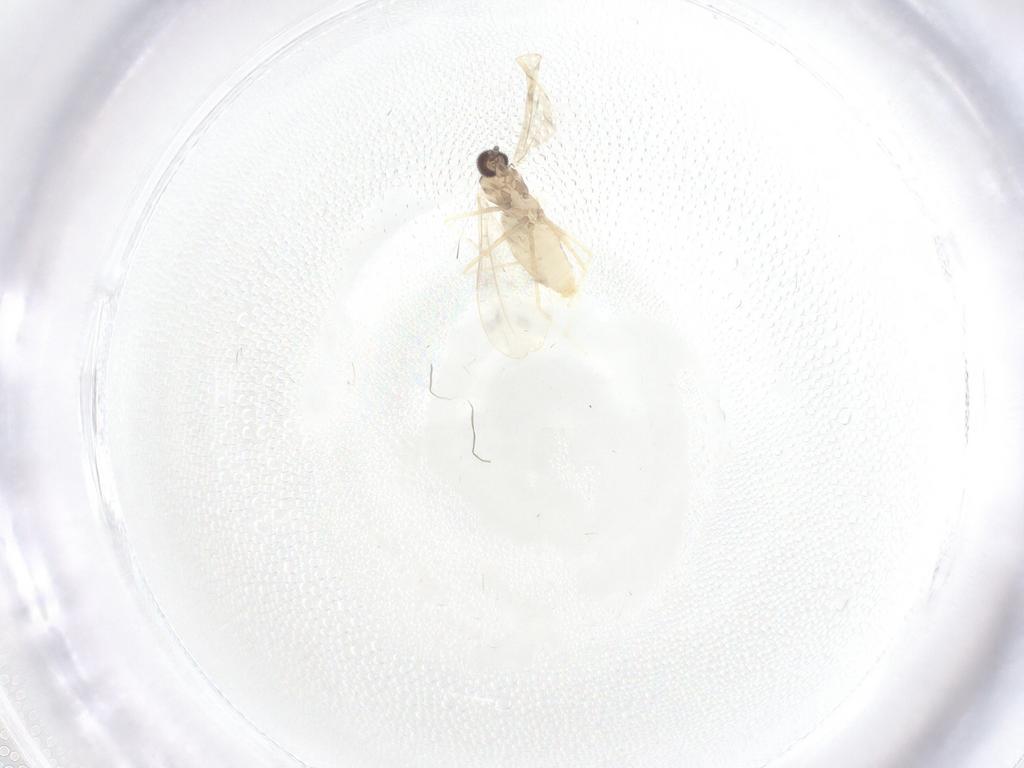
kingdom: Animalia
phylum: Arthropoda
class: Insecta
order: Diptera
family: Cecidomyiidae
